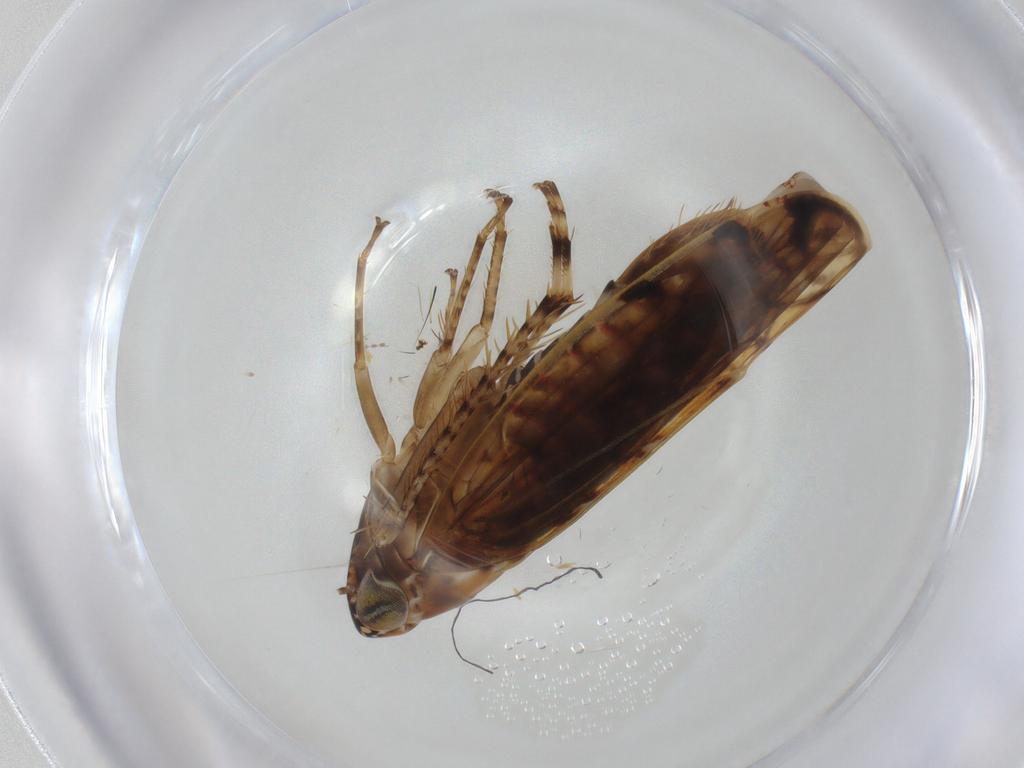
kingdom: Animalia
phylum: Arthropoda
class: Insecta
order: Hemiptera
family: Cicadellidae
